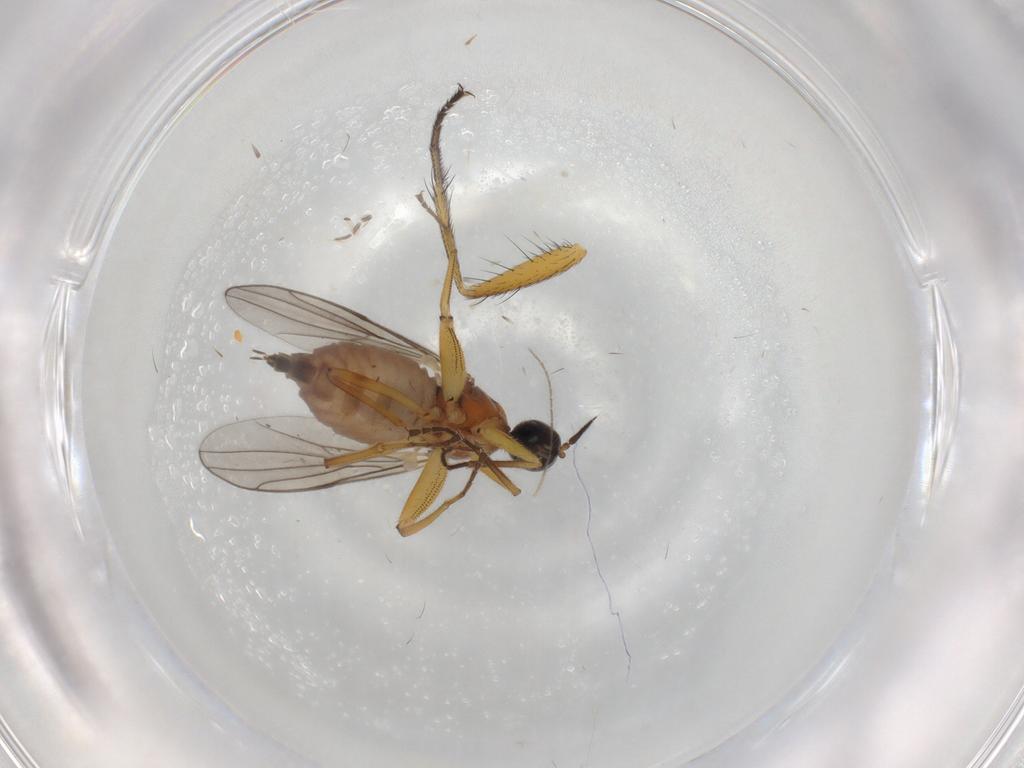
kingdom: Animalia
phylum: Arthropoda
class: Insecta
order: Diptera
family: Hybotidae
